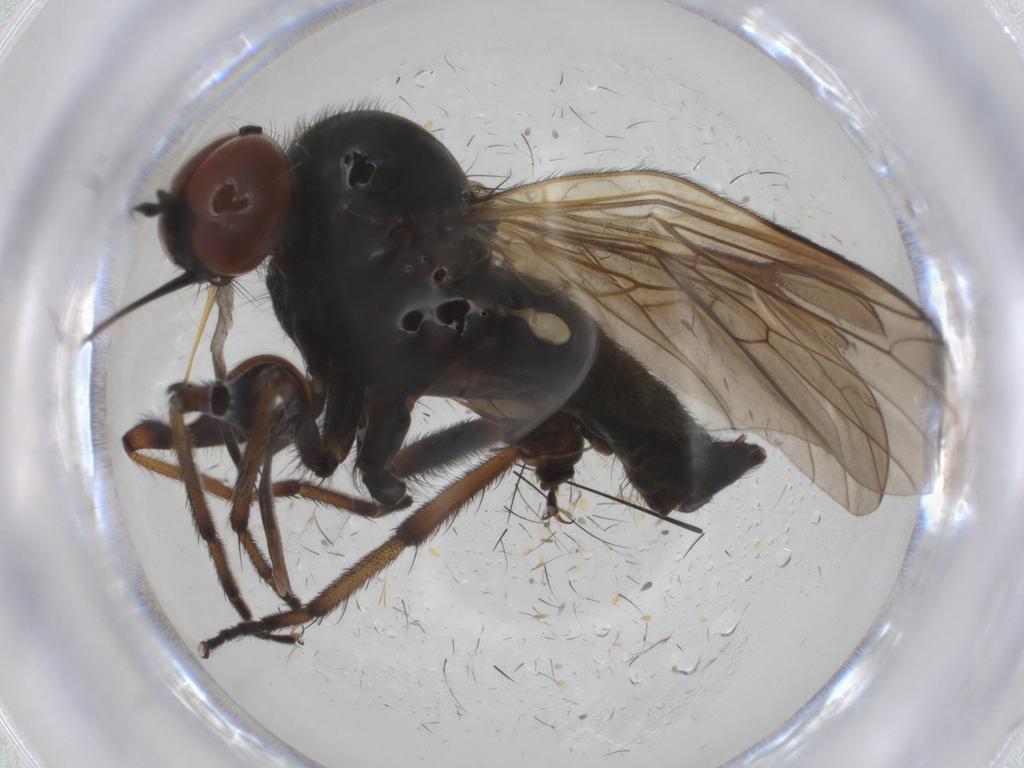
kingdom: Animalia
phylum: Arthropoda
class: Insecta
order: Diptera
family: Empididae
